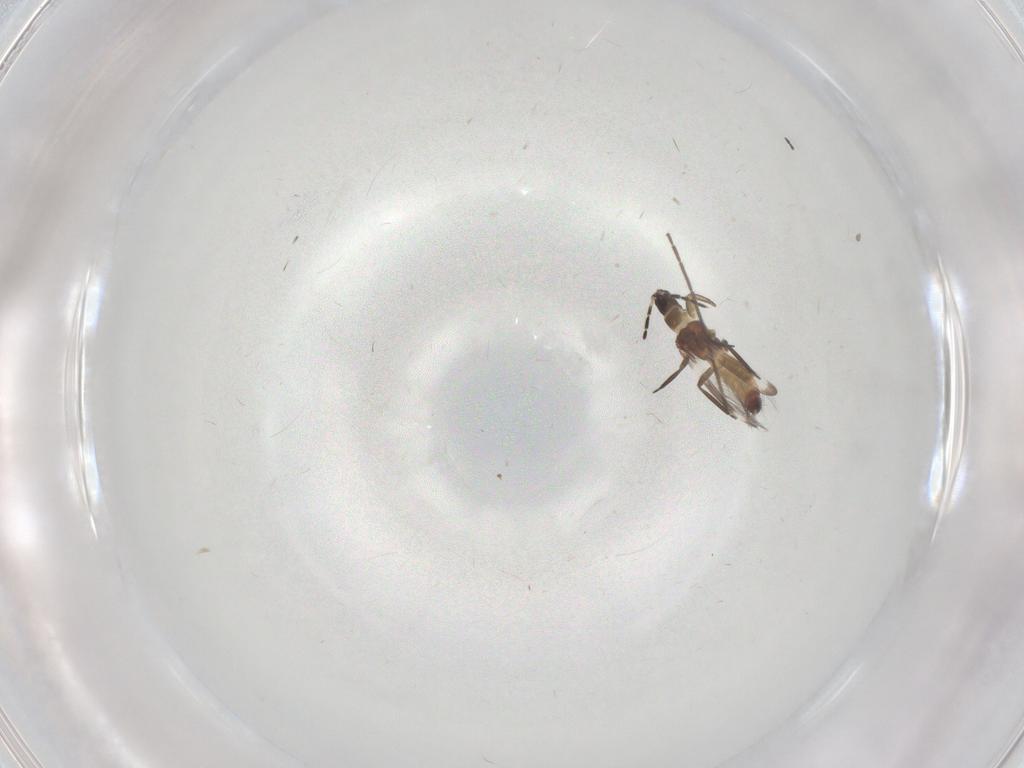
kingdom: Animalia
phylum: Arthropoda
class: Insecta
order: Thysanoptera
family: Aeolothripidae
